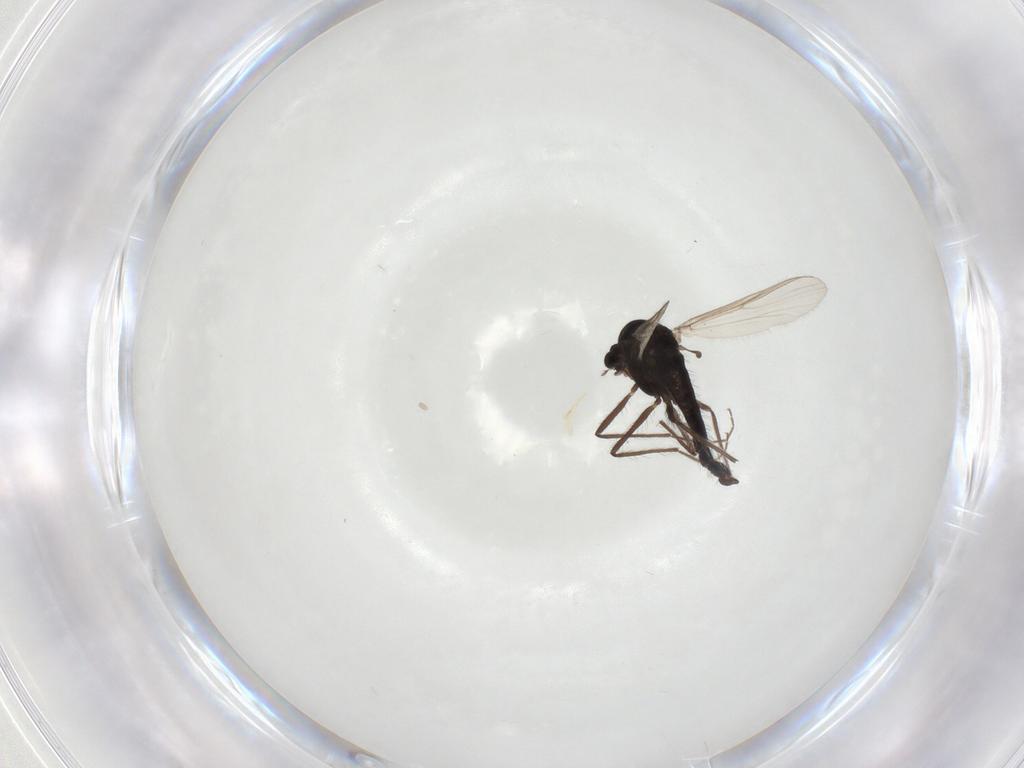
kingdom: Animalia
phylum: Arthropoda
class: Insecta
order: Diptera
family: Chironomidae
